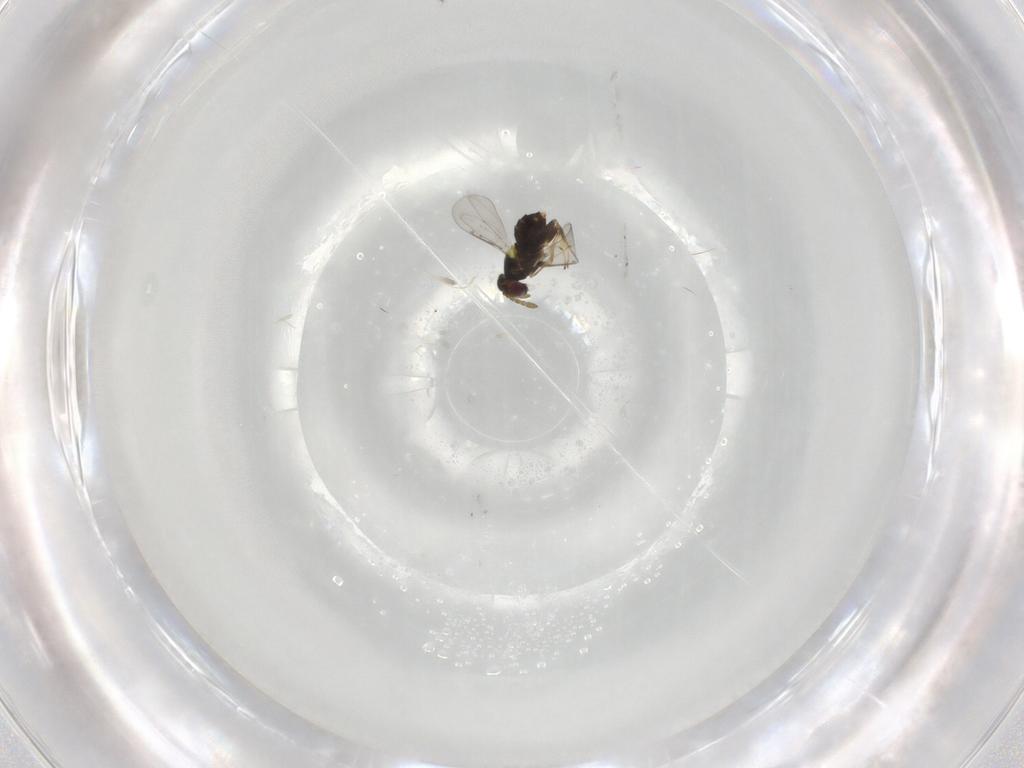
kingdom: Animalia
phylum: Arthropoda
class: Insecta
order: Hymenoptera
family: Aphelinidae
